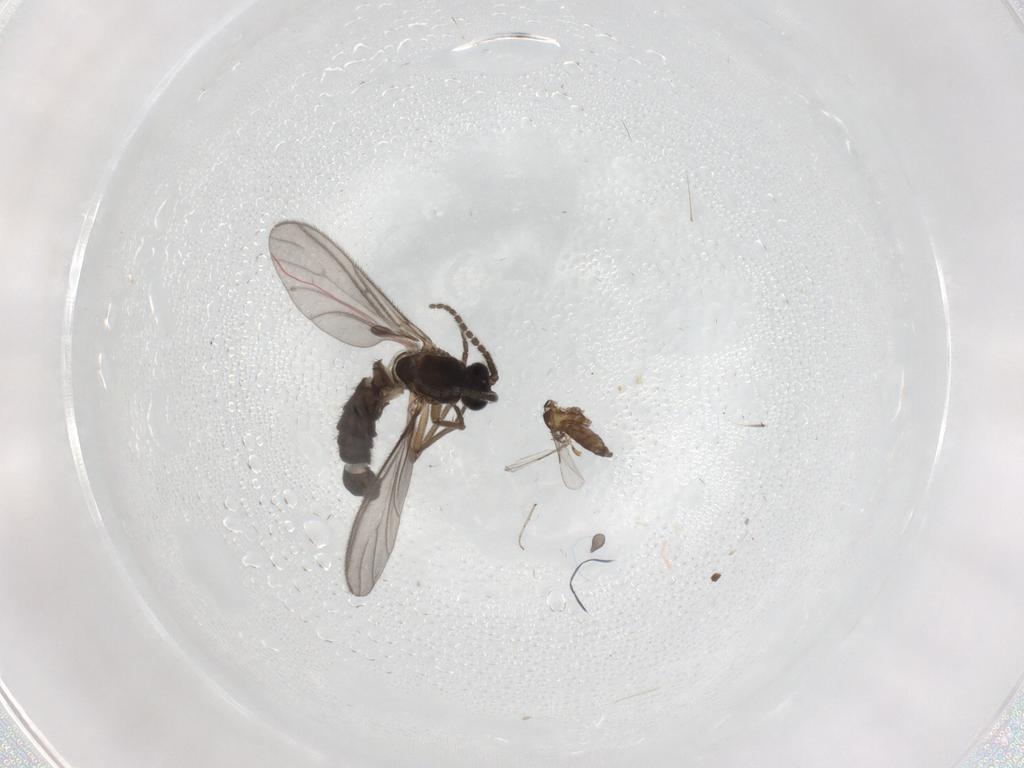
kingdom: Animalia
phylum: Arthropoda
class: Insecta
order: Diptera
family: Sciaridae
